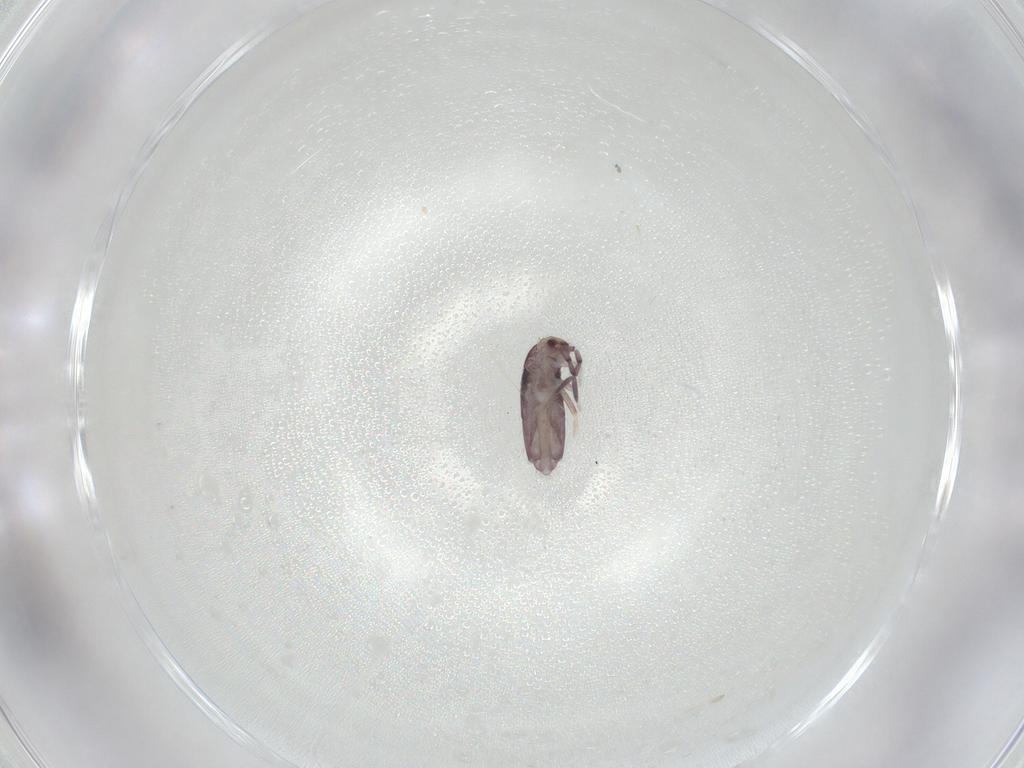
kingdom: Animalia
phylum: Arthropoda
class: Collembola
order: Entomobryomorpha
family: Entomobryidae
